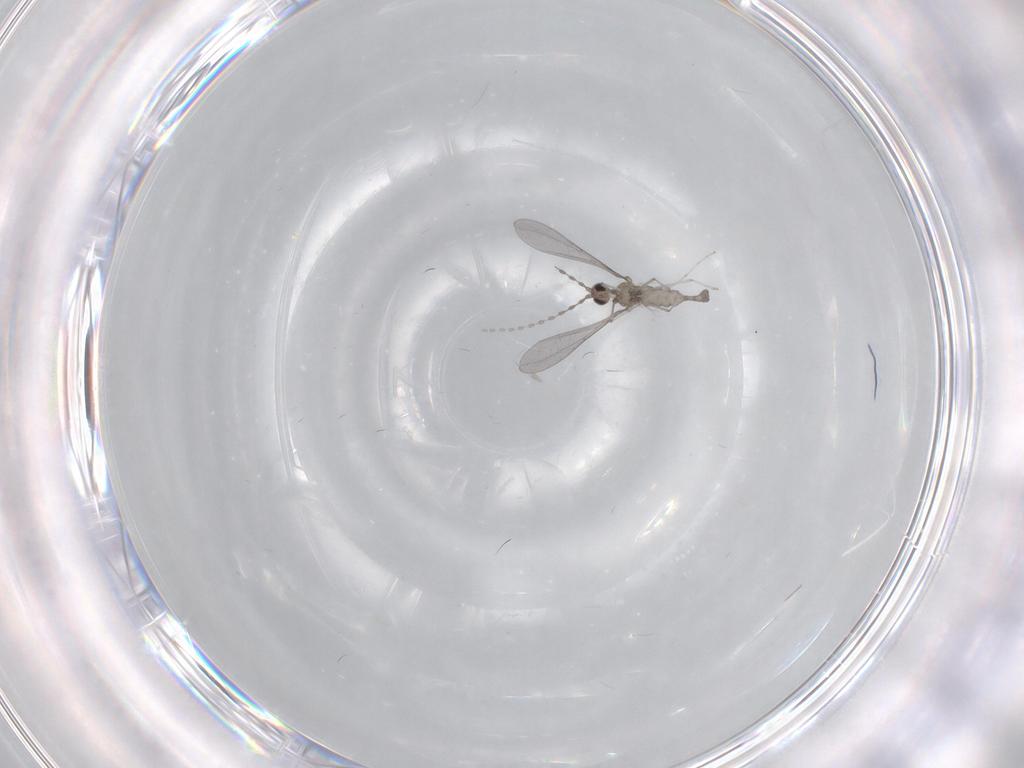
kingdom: Animalia
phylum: Arthropoda
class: Insecta
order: Diptera
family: Cecidomyiidae
